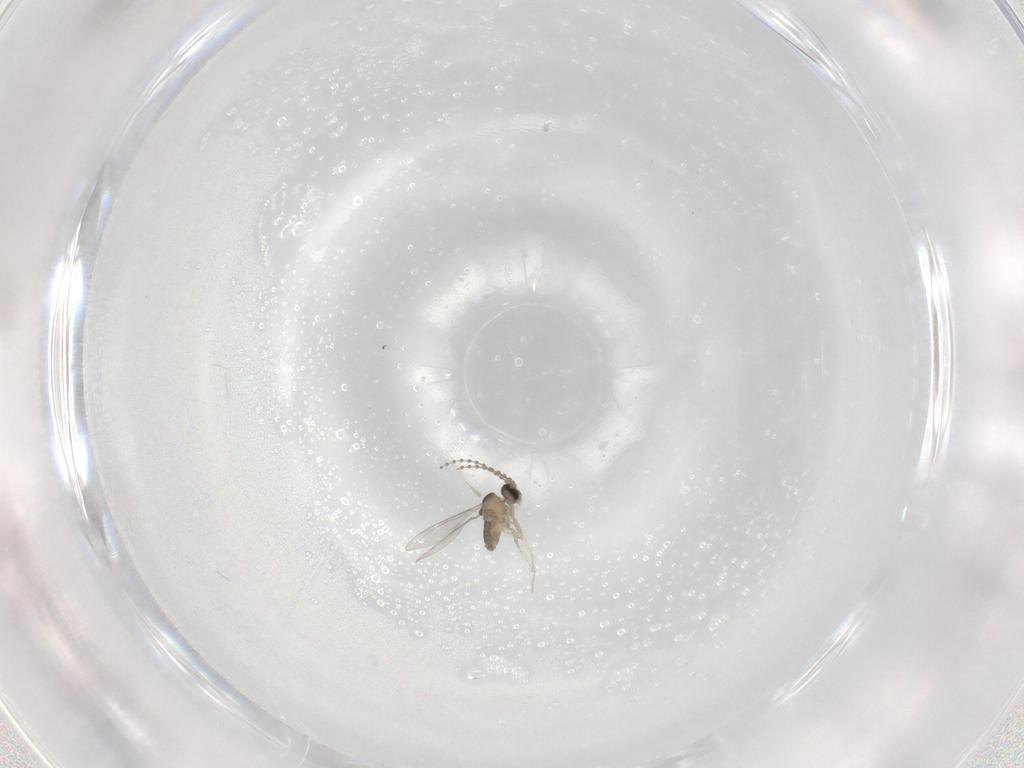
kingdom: Animalia
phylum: Arthropoda
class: Insecta
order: Diptera
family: Cecidomyiidae
